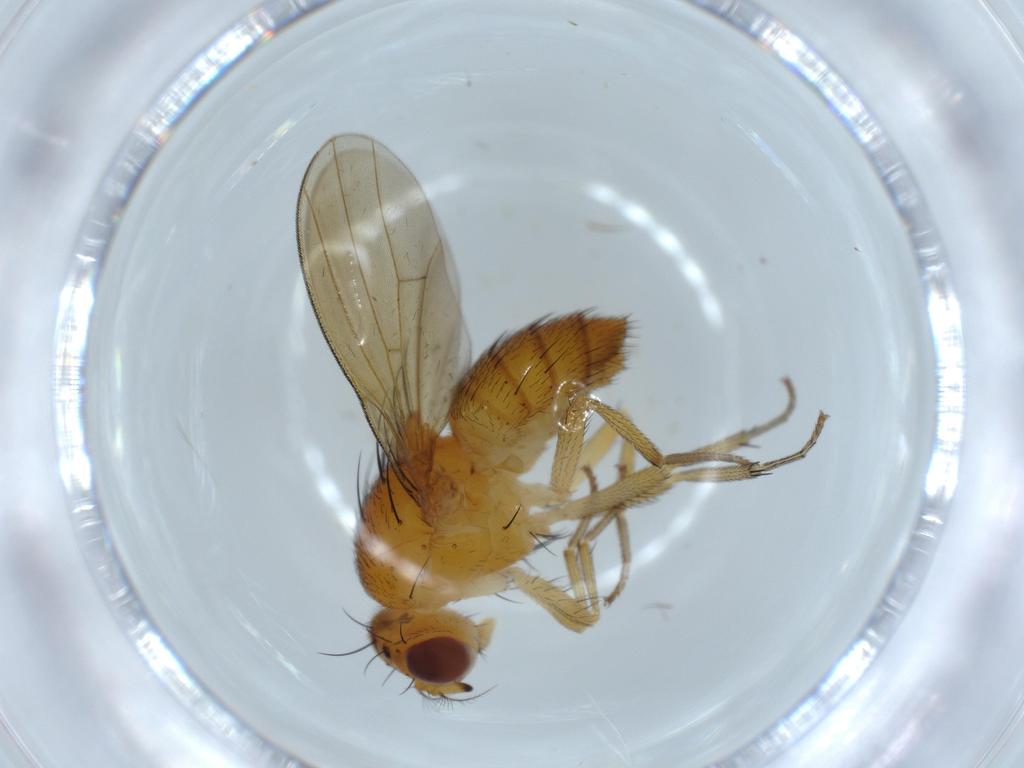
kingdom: Animalia
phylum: Arthropoda
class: Insecta
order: Diptera
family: Lauxaniidae
